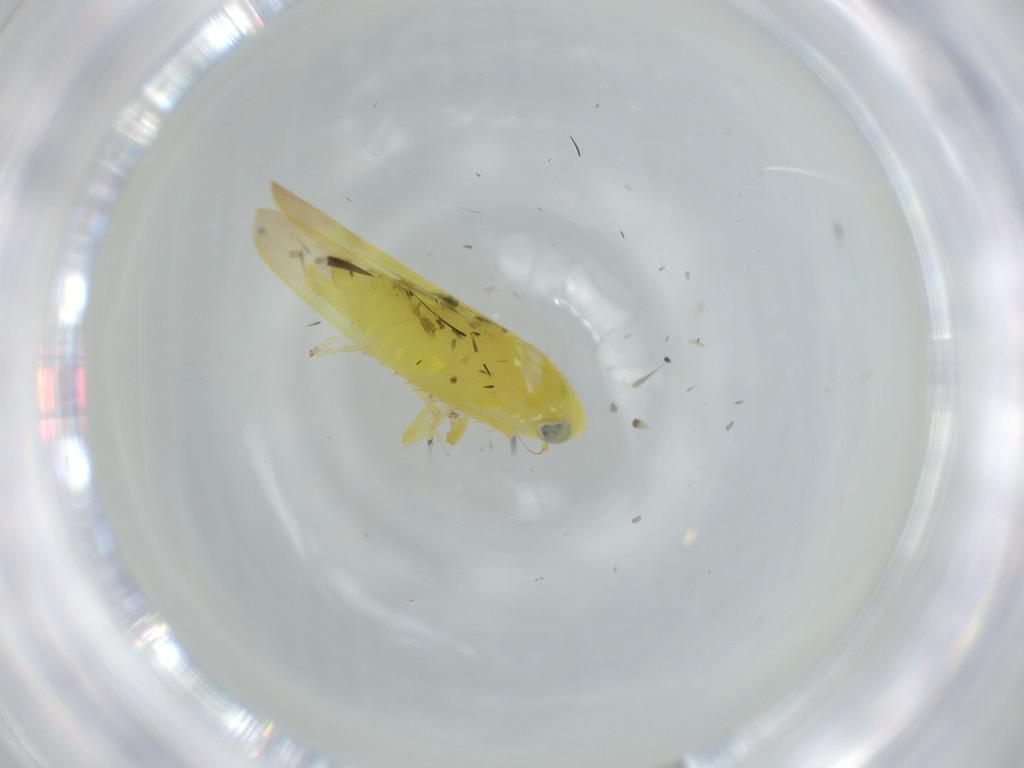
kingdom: Animalia
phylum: Arthropoda
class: Insecta
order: Hemiptera
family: Cicadellidae
